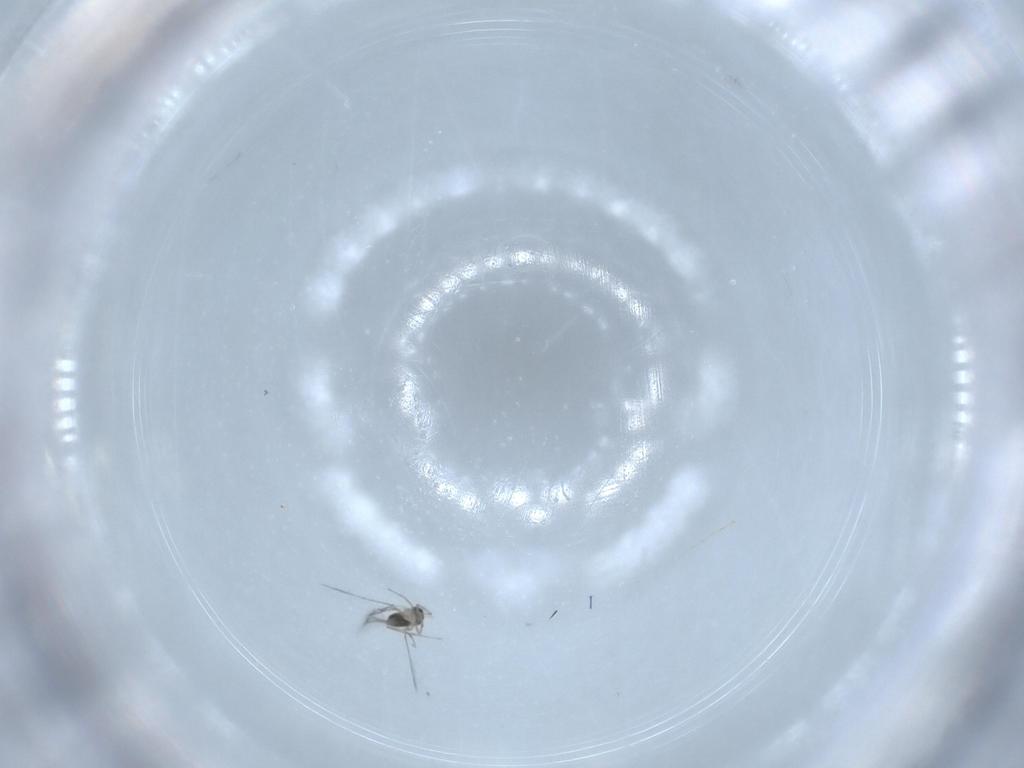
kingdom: Animalia
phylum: Arthropoda
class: Insecta
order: Hymenoptera
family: Mymaridae
